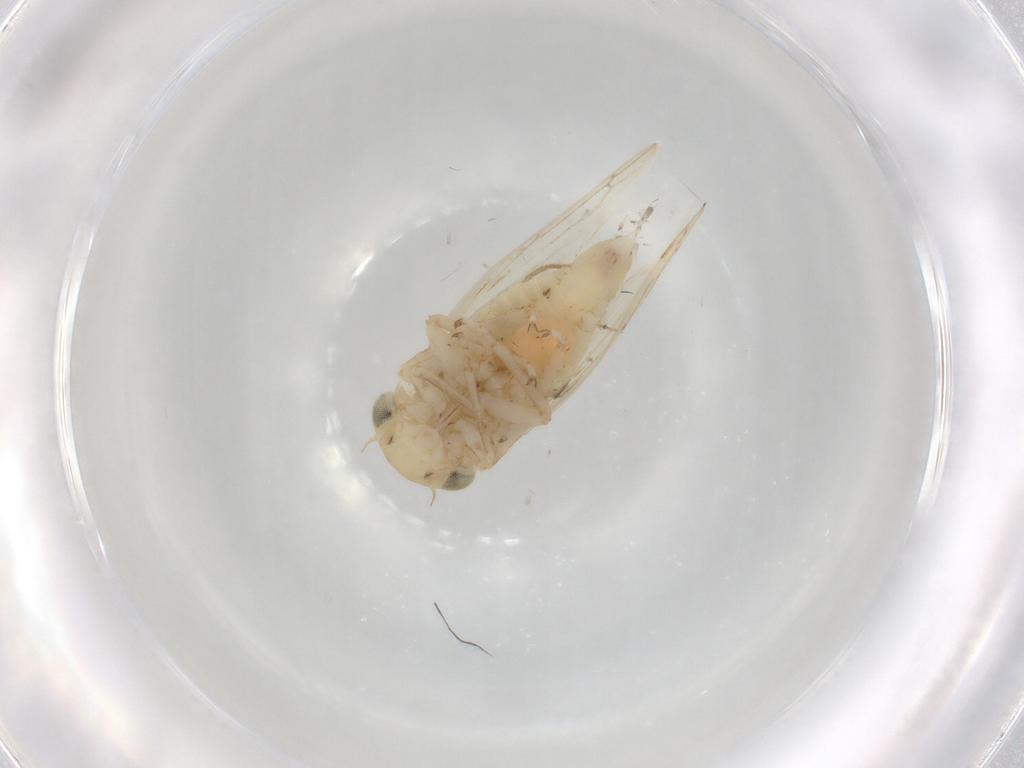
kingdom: Animalia
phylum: Arthropoda
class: Insecta
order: Hemiptera
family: Cicadellidae
